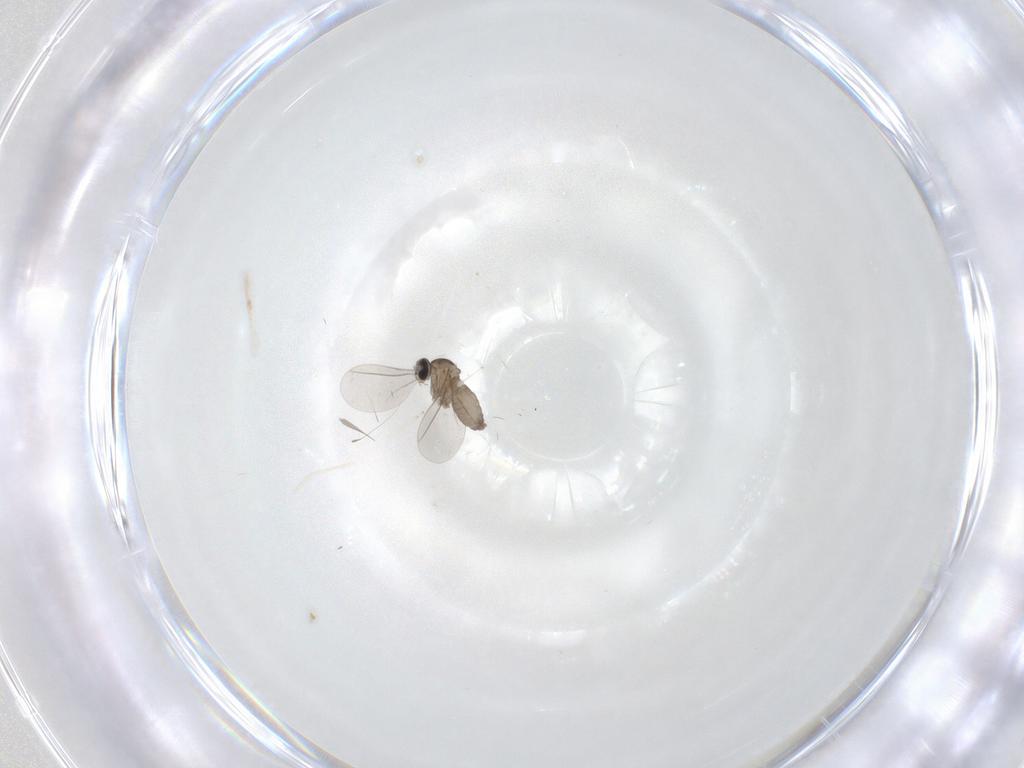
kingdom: Animalia
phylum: Arthropoda
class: Insecta
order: Diptera
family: Cecidomyiidae
